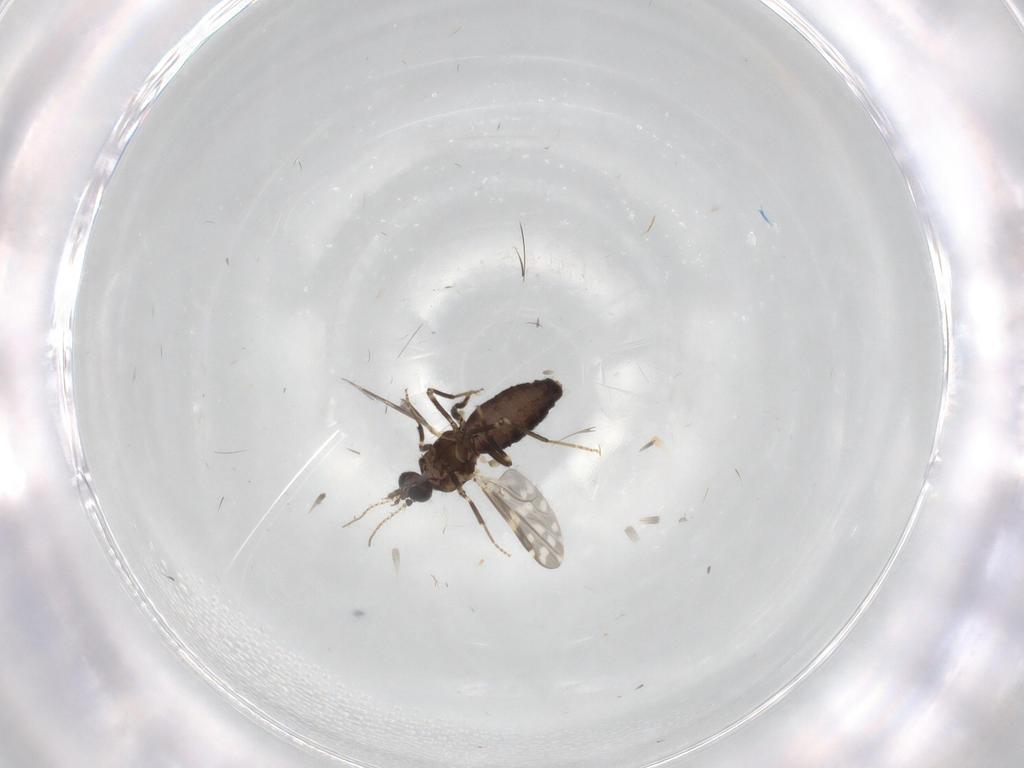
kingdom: Animalia
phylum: Arthropoda
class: Insecta
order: Diptera
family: Ceratopogonidae
